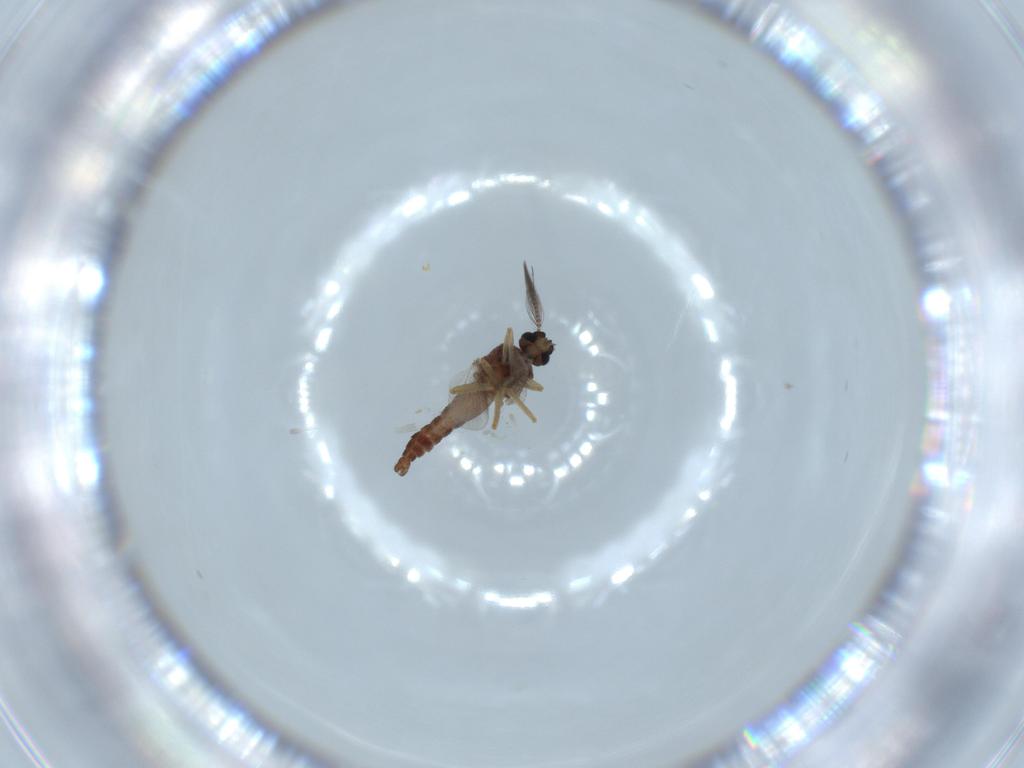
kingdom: Animalia
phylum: Arthropoda
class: Insecta
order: Diptera
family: Ceratopogonidae
